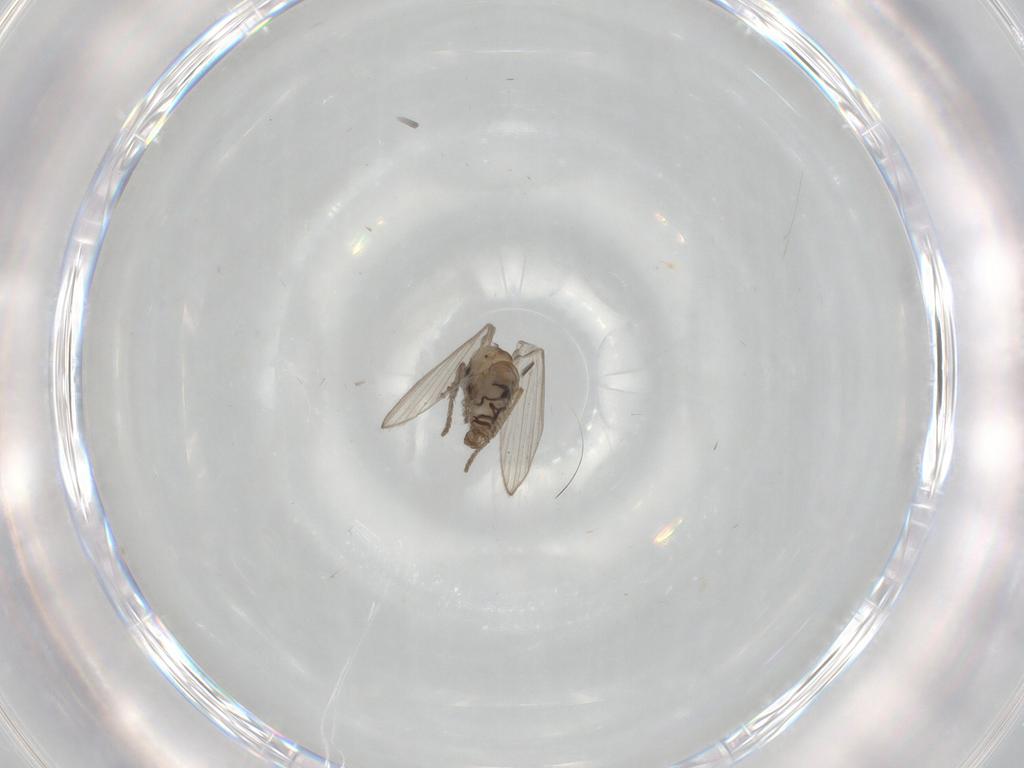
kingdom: Animalia
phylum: Arthropoda
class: Insecta
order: Diptera
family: Psychodidae
